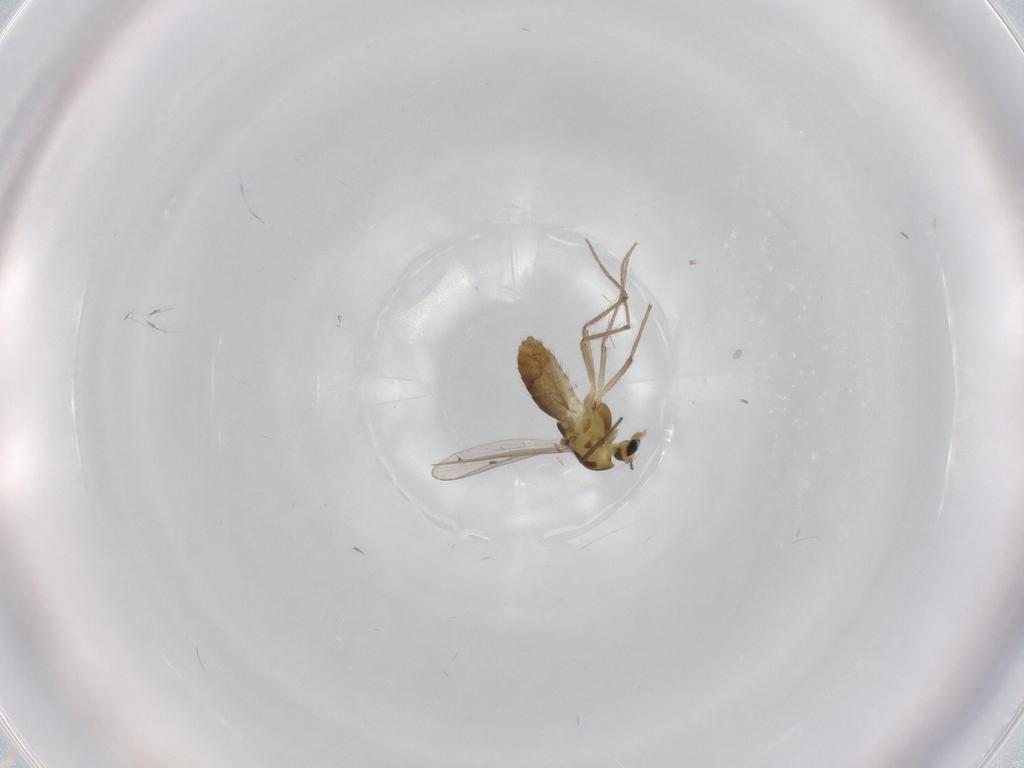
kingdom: Animalia
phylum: Arthropoda
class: Insecta
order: Diptera
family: Chironomidae
